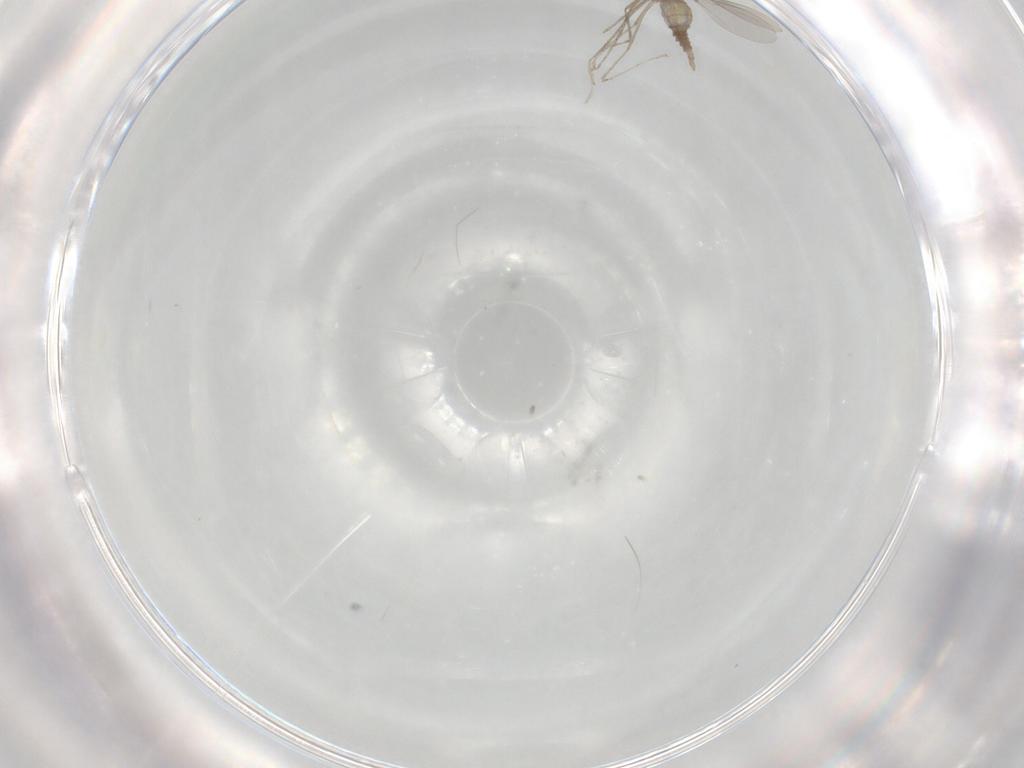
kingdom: Animalia
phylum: Arthropoda
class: Insecta
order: Diptera
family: Cecidomyiidae
